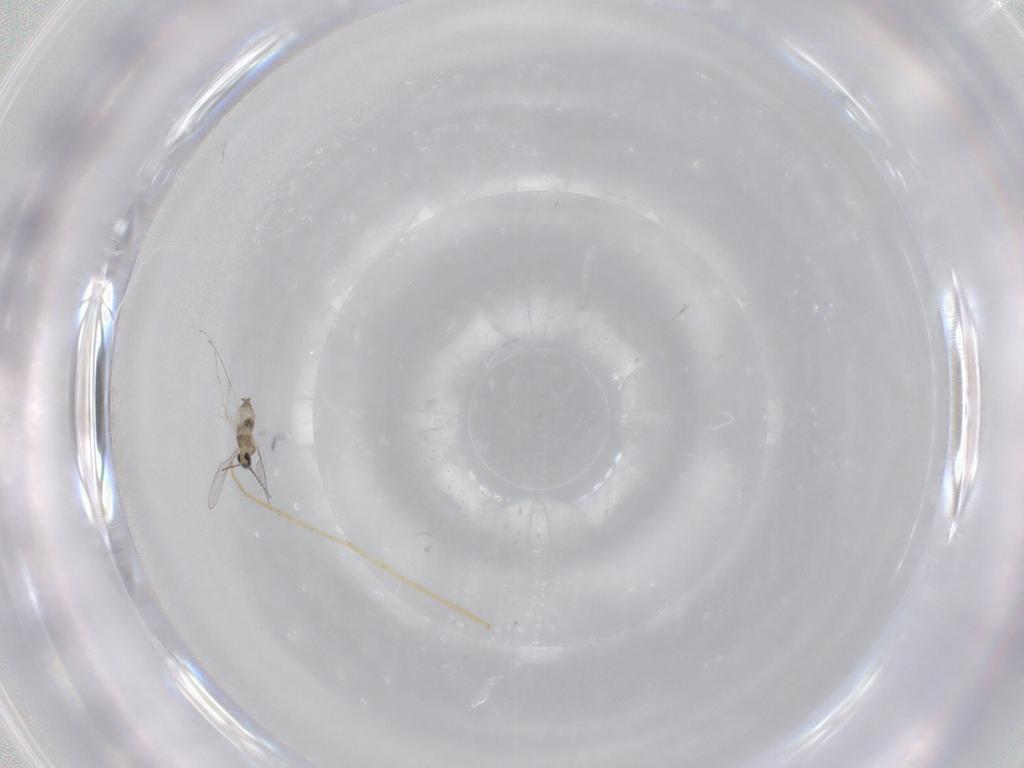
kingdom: Animalia
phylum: Arthropoda
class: Insecta
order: Diptera
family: Cecidomyiidae
